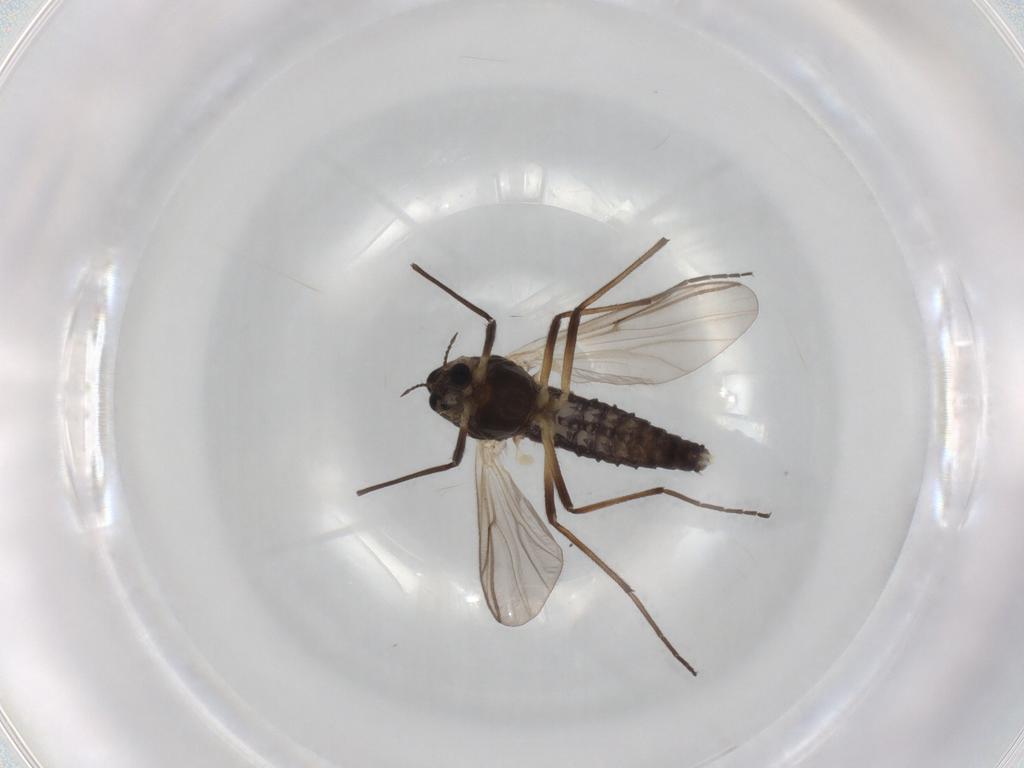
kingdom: Animalia
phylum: Arthropoda
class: Insecta
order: Diptera
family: Chironomidae
